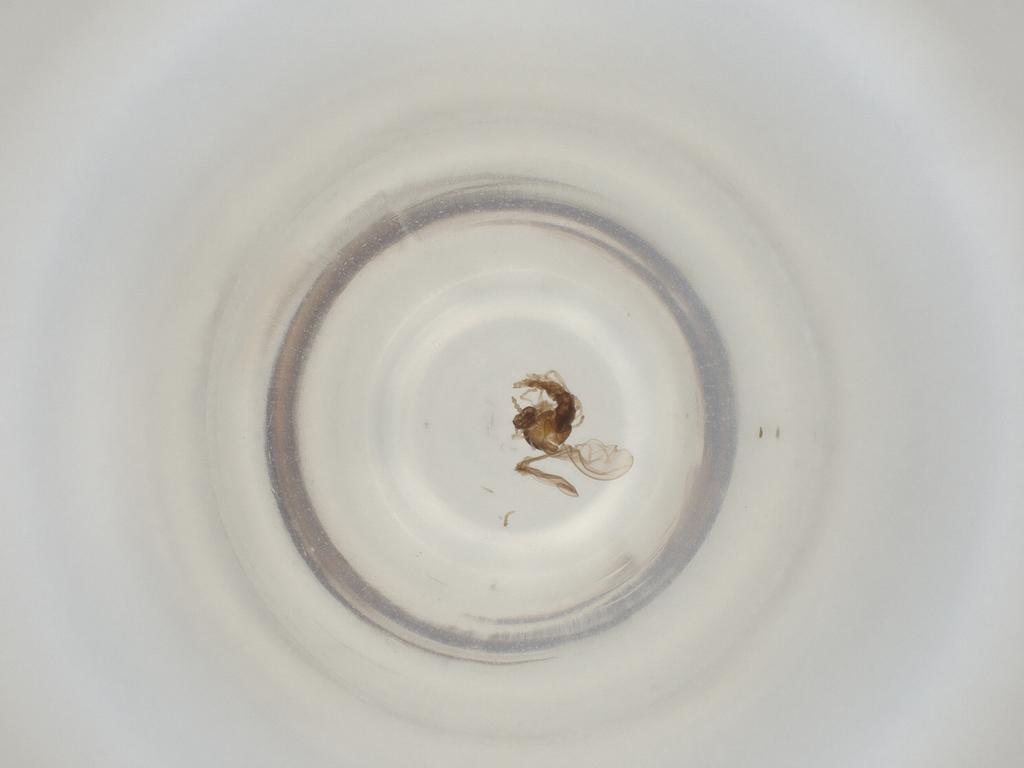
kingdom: Animalia
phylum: Arthropoda
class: Insecta
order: Diptera
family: Cecidomyiidae
